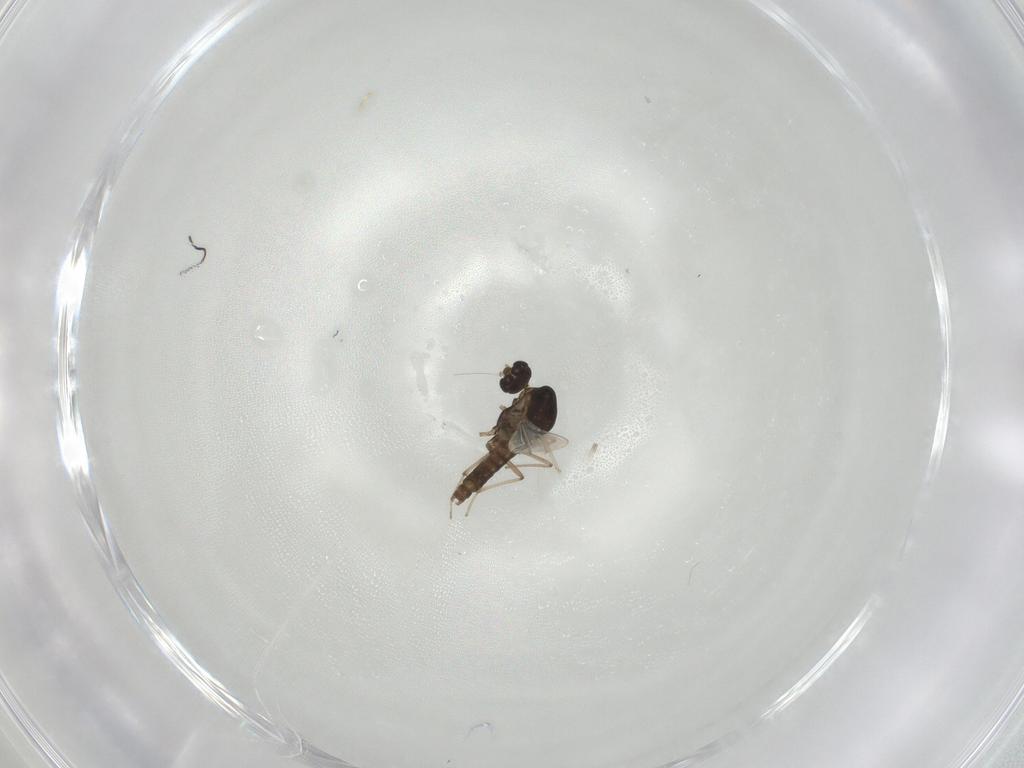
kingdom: Animalia
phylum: Arthropoda
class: Insecta
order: Diptera
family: Chironomidae
